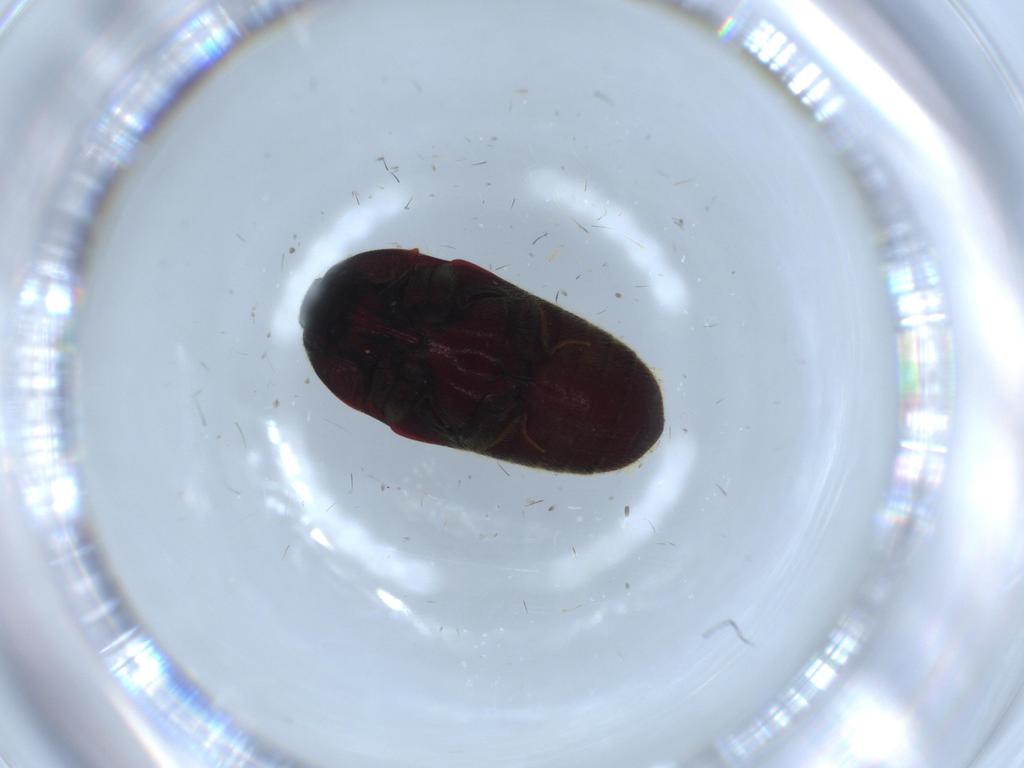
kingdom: Animalia
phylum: Arthropoda
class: Insecta
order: Coleoptera
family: Throscidae
